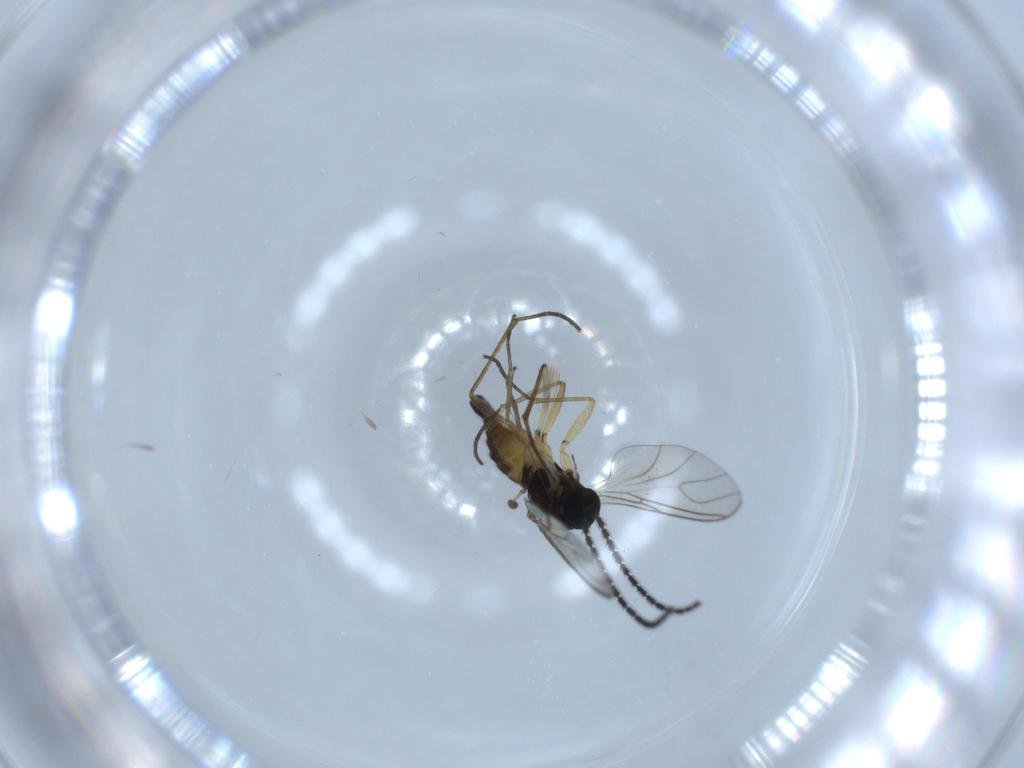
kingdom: Animalia
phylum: Arthropoda
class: Insecta
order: Diptera
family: Sciaridae
